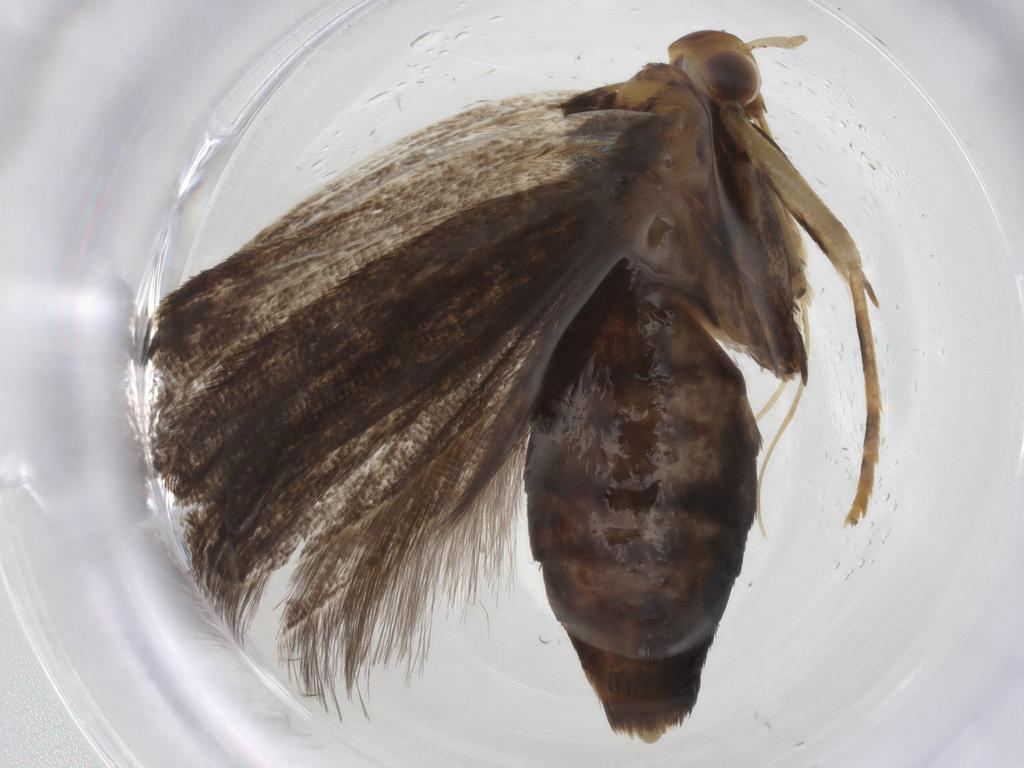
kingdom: Animalia
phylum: Arthropoda
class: Insecta
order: Lepidoptera
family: Lecithoceridae
